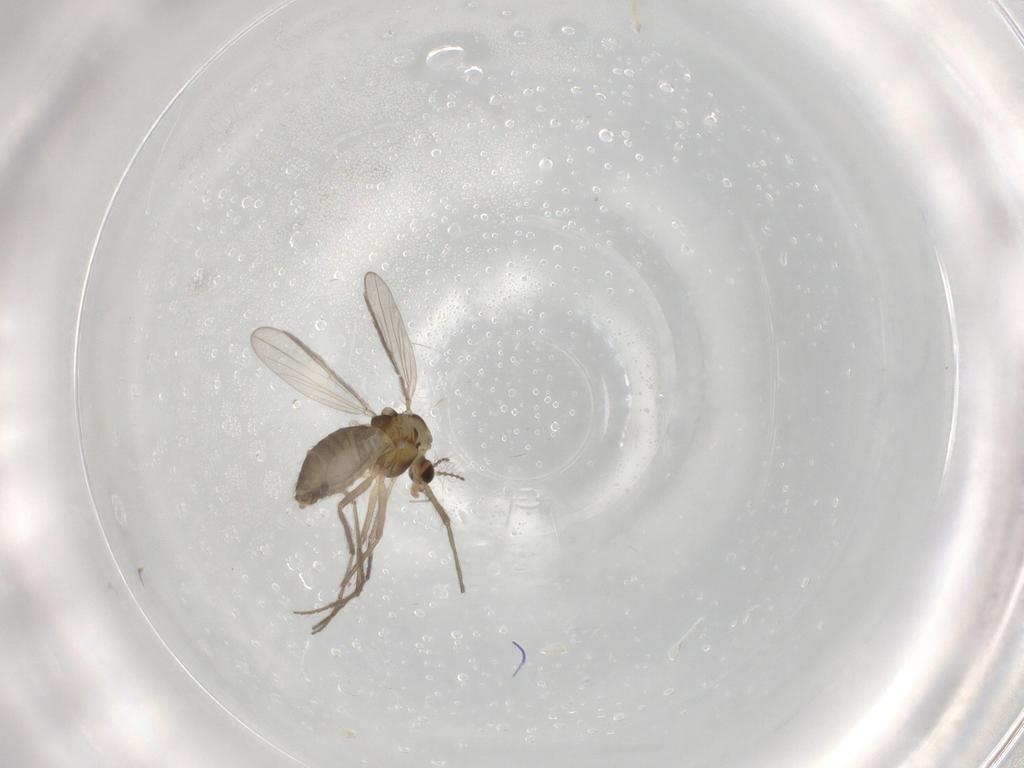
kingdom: Animalia
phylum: Arthropoda
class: Insecta
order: Diptera
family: Chironomidae
